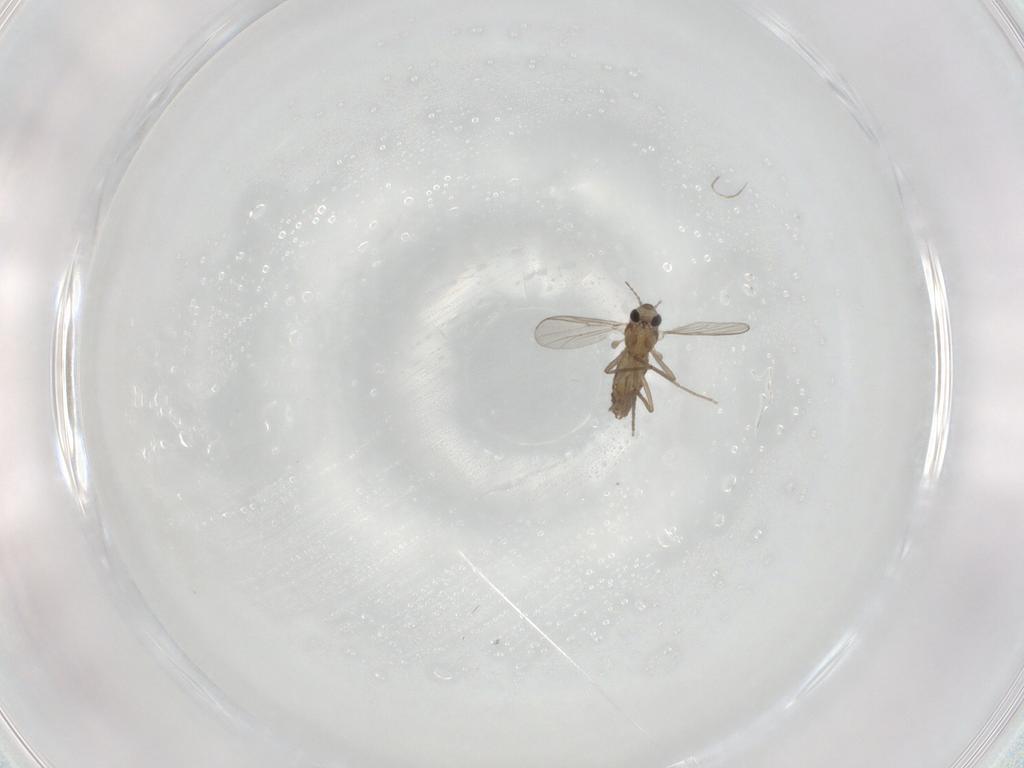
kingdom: Animalia
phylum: Arthropoda
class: Insecta
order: Diptera
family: Chironomidae
